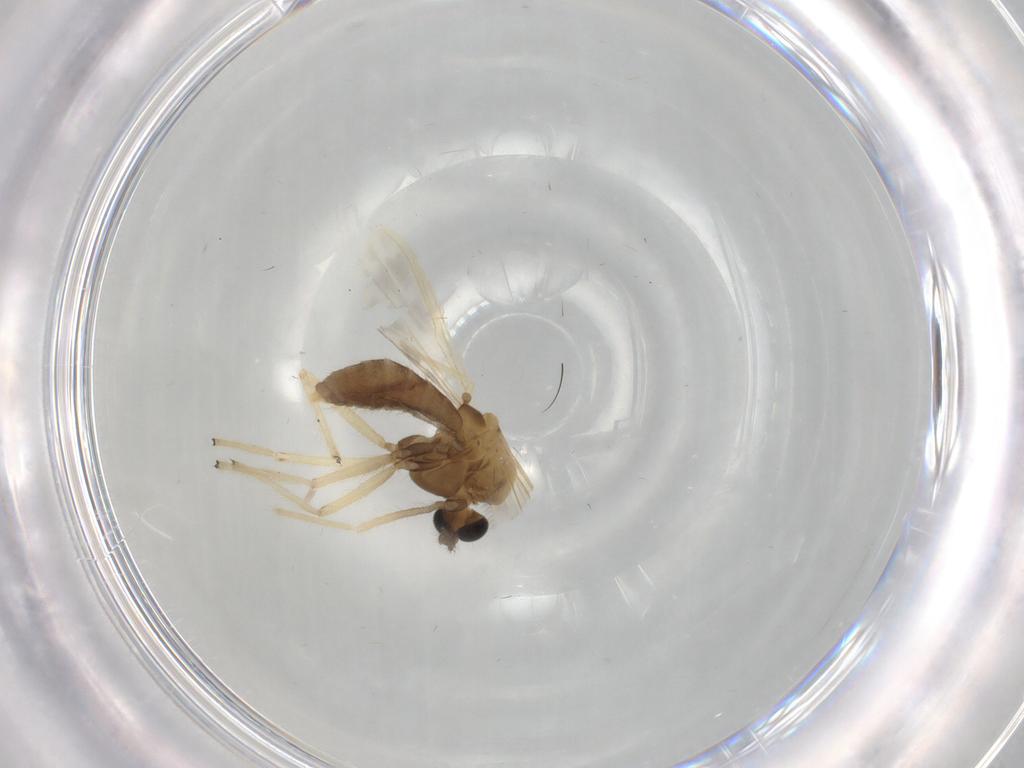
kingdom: Animalia
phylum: Arthropoda
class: Insecta
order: Diptera
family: Chironomidae
